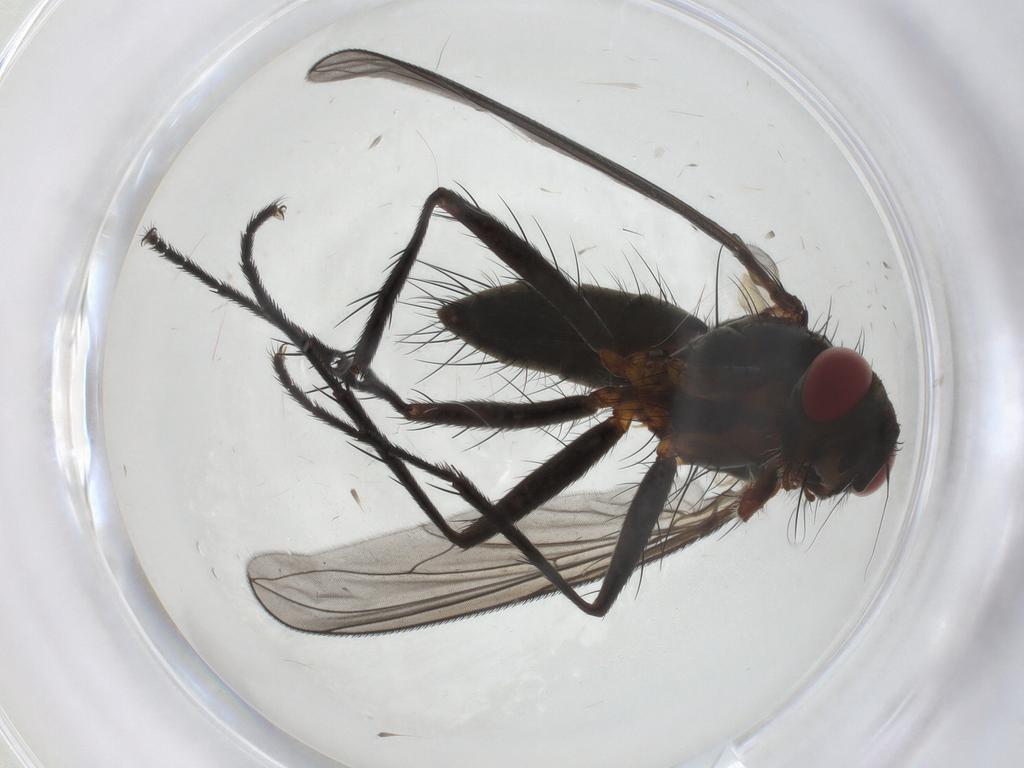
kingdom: Animalia
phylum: Arthropoda
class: Insecta
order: Diptera
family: Tachinidae
